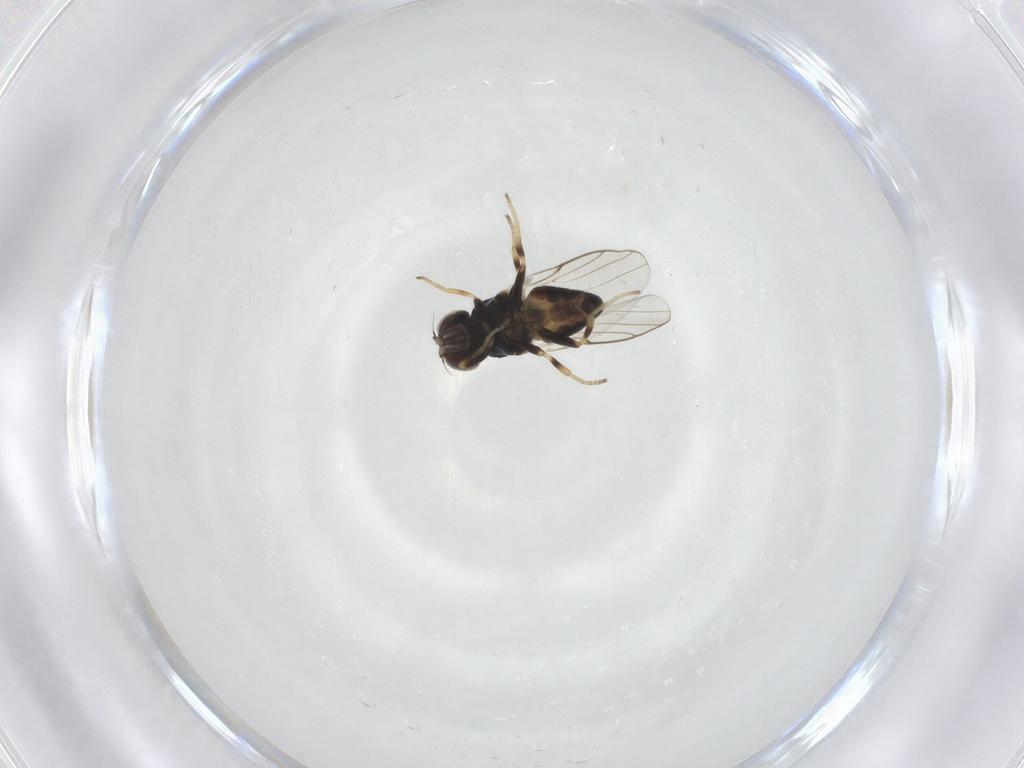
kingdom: Animalia
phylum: Arthropoda
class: Insecta
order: Diptera
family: Chloropidae
